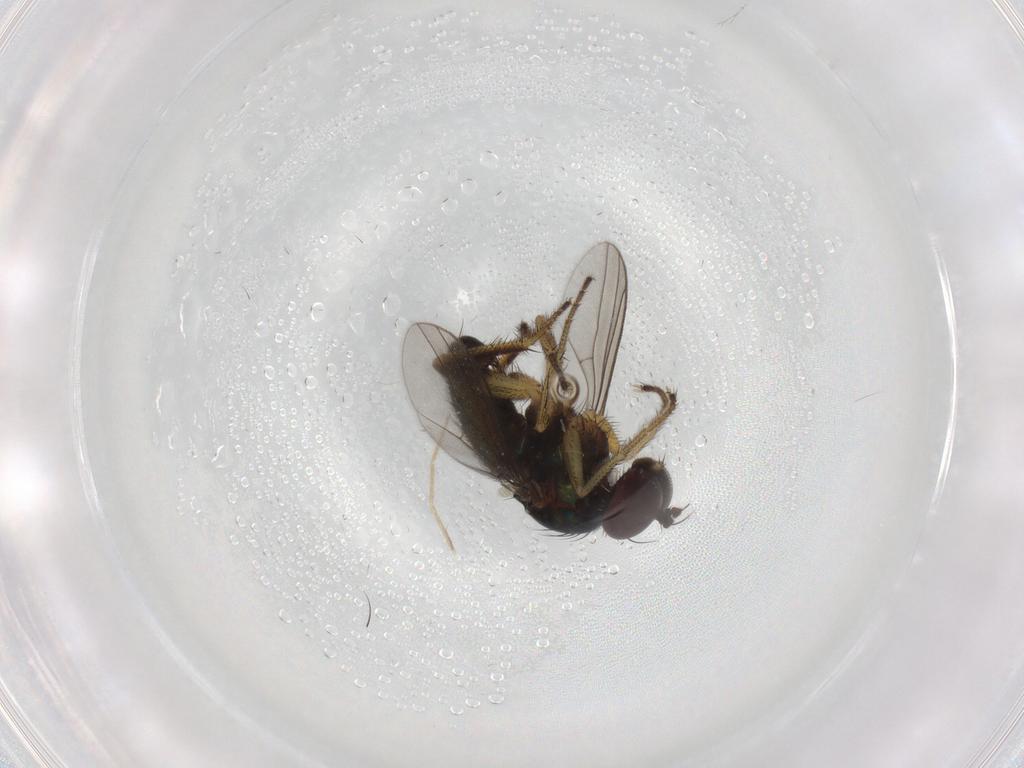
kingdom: Animalia
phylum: Arthropoda
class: Insecta
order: Diptera
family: Dolichopodidae
